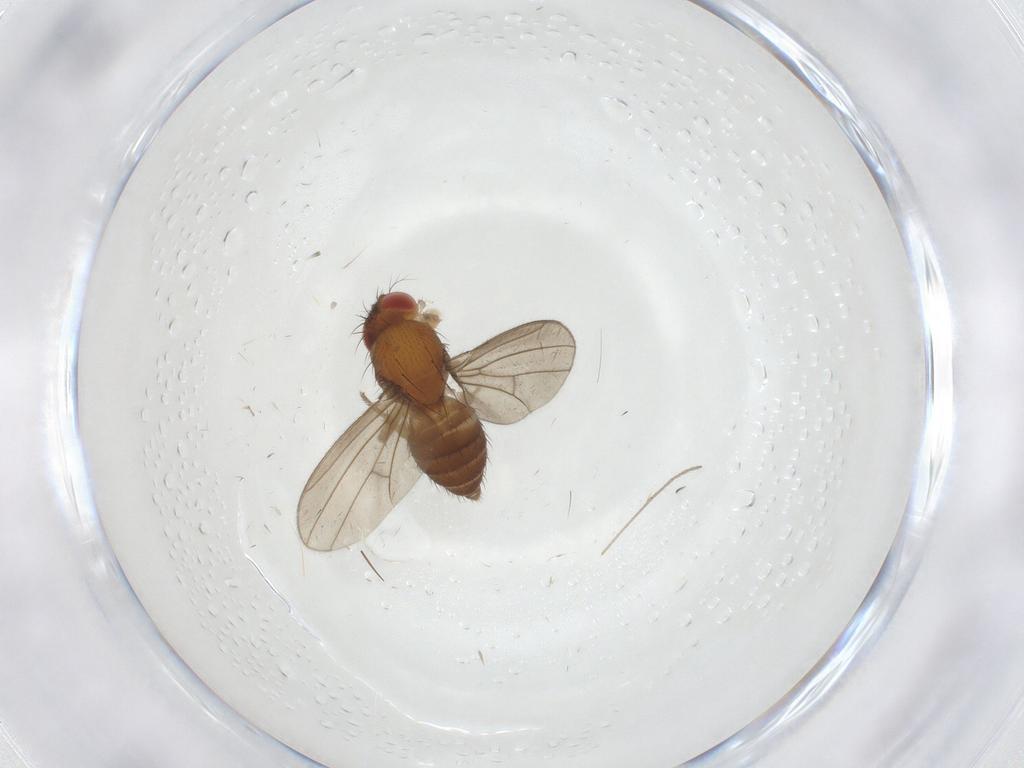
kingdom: Animalia
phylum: Arthropoda
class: Insecta
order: Diptera
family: Drosophilidae
